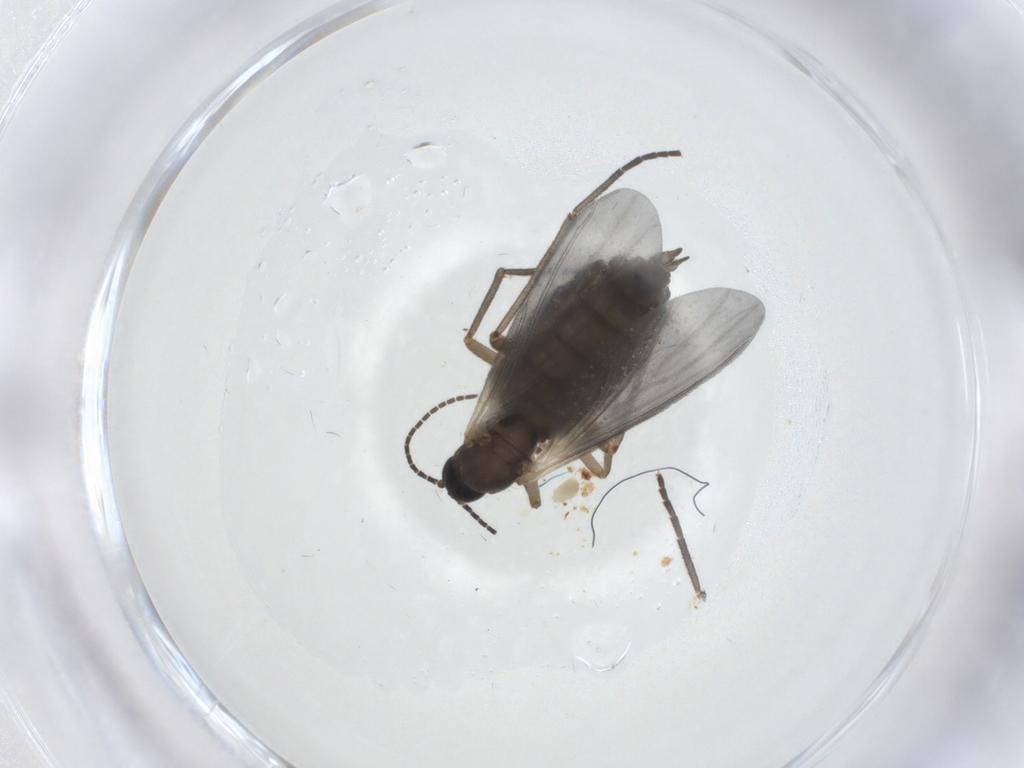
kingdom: Animalia
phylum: Arthropoda
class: Insecta
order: Diptera
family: Sciaridae
